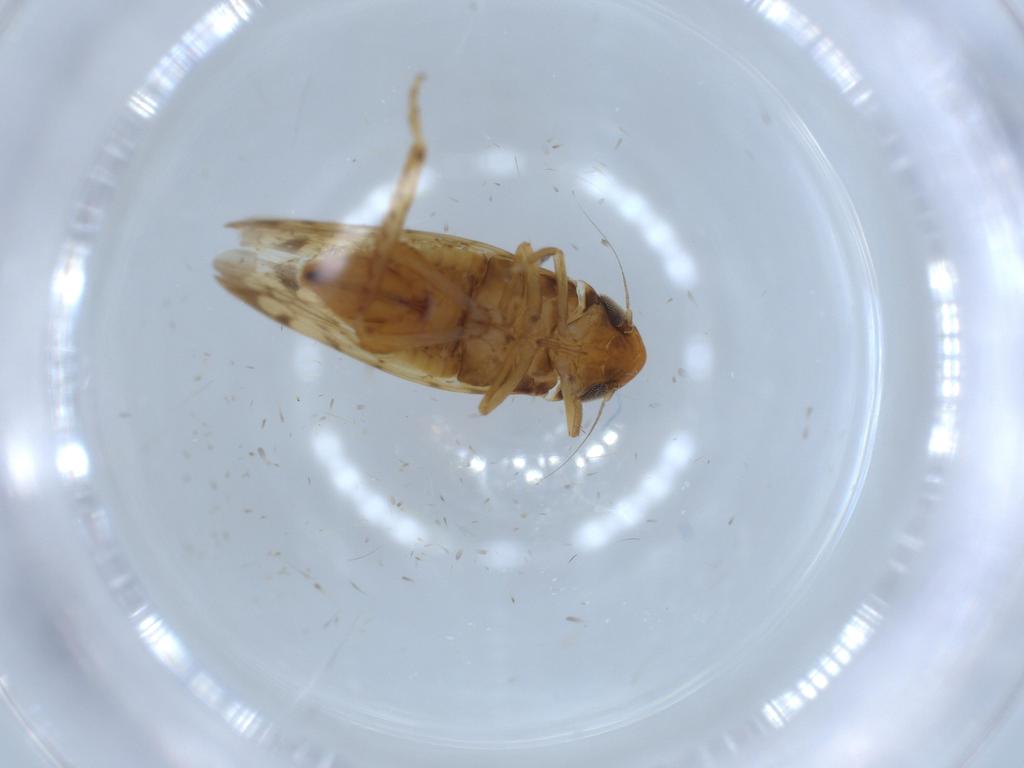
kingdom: Animalia
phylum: Arthropoda
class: Insecta
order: Hemiptera
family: Cicadellidae
